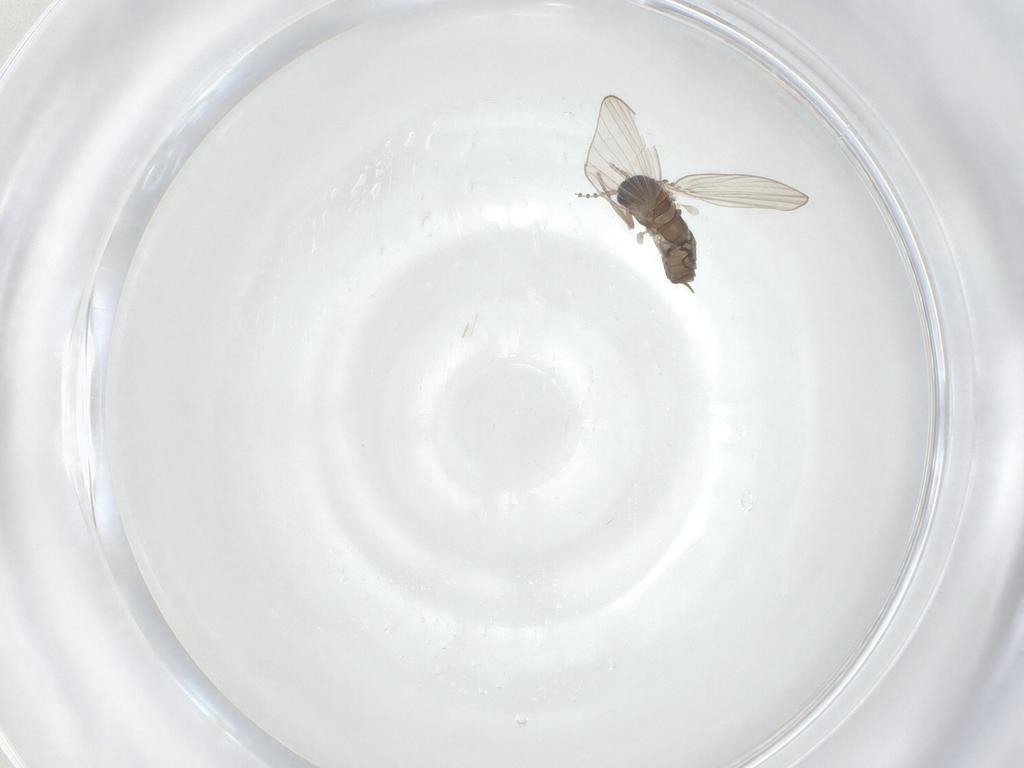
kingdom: Animalia
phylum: Arthropoda
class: Insecta
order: Diptera
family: Psychodidae
